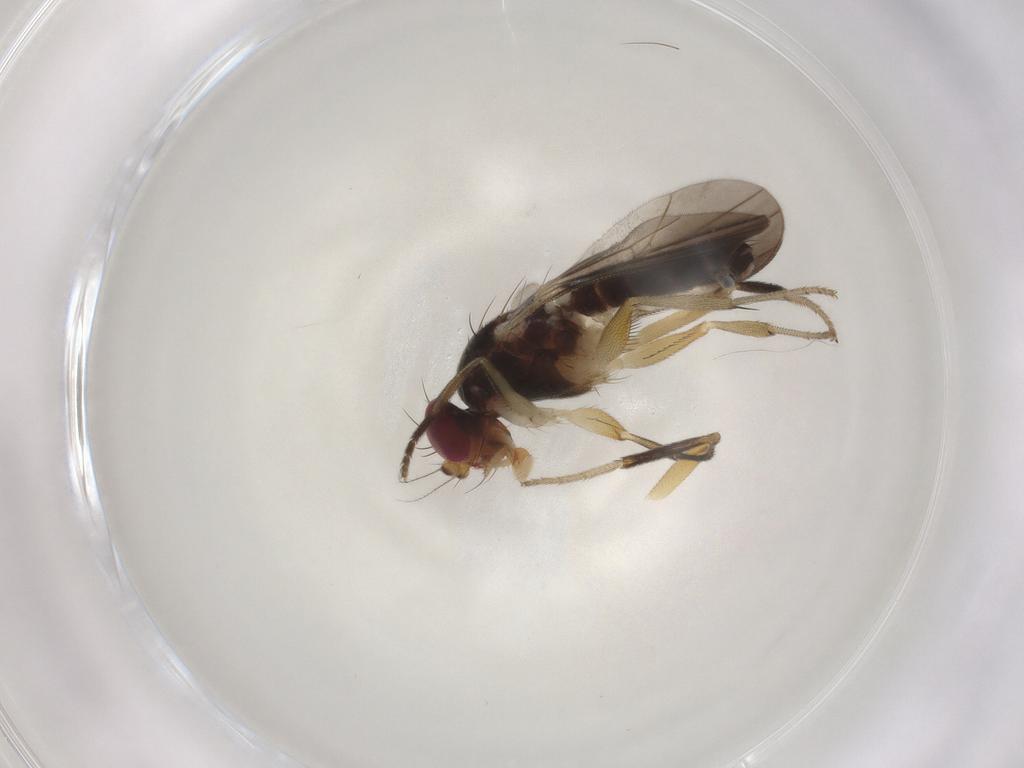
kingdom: Animalia
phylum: Arthropoda
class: Insecta
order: Diptera
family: Clusiidae
